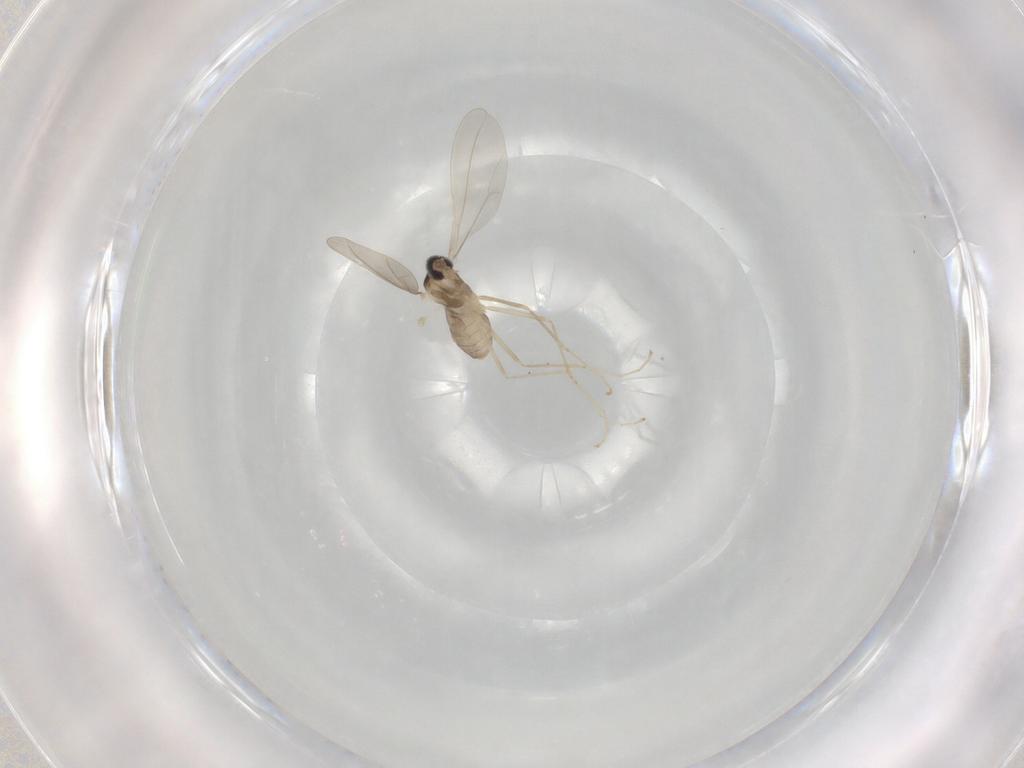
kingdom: Animalia
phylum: Arthropoda
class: Insecta
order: Diptera
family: Cecidomyiidae
